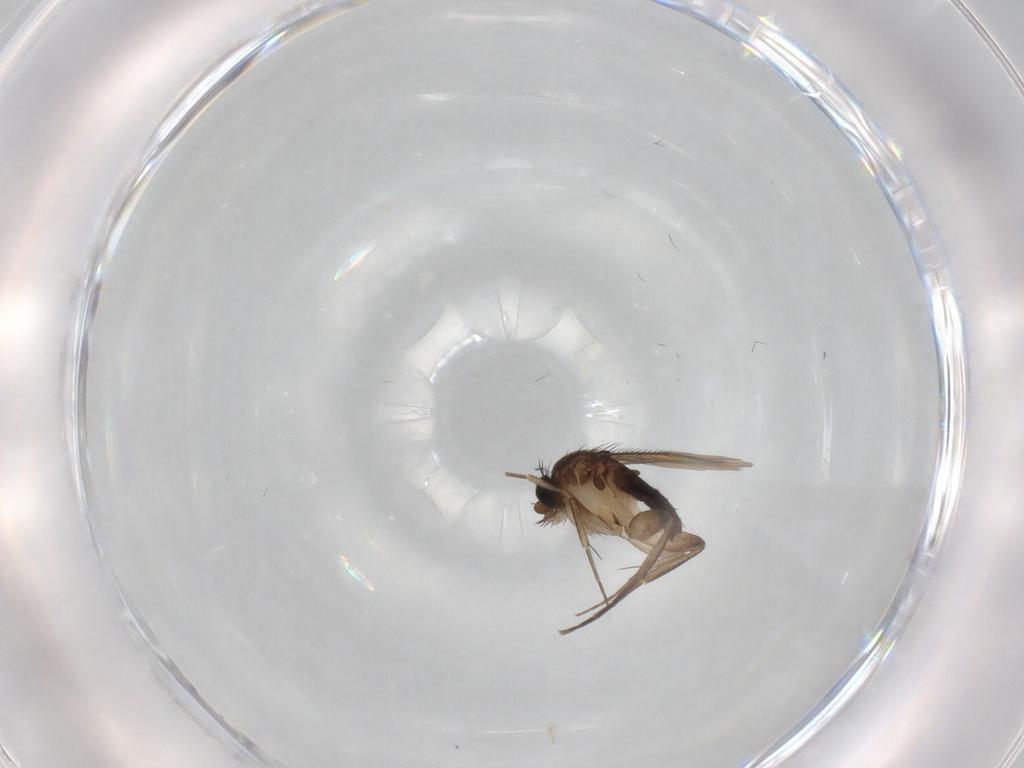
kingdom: Animalia
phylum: Arthropoda
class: Insecta
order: Diptera
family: Phoridae
